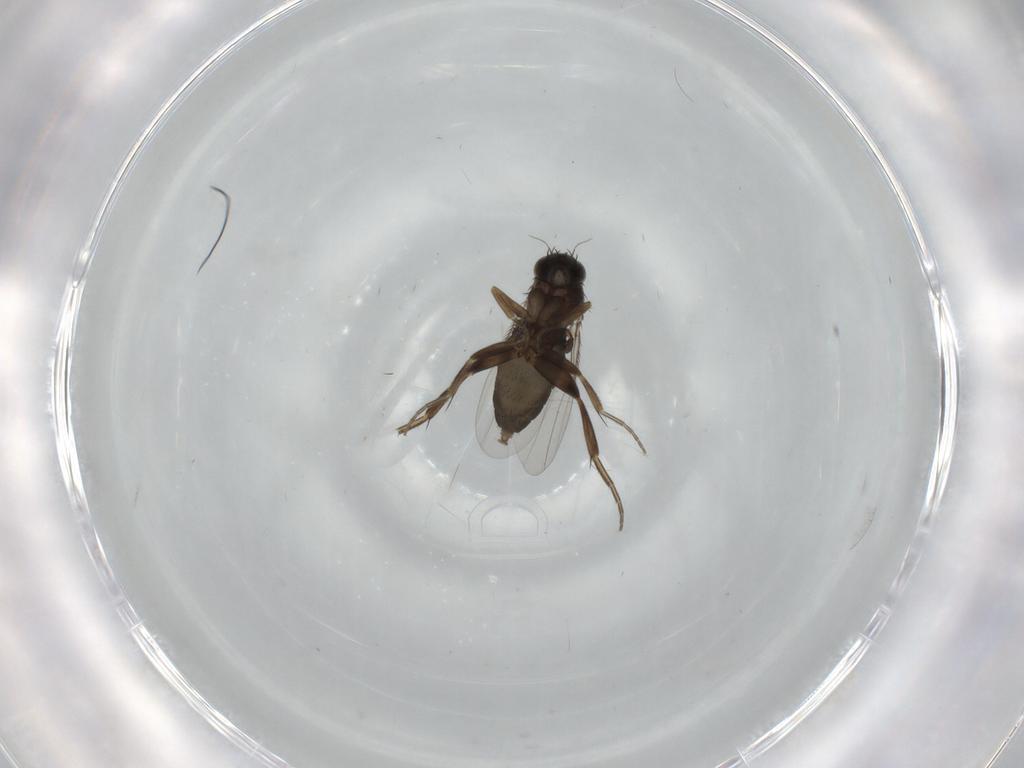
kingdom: Animalia
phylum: Arthropoda
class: Insecta
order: Diptera
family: Phoridae
